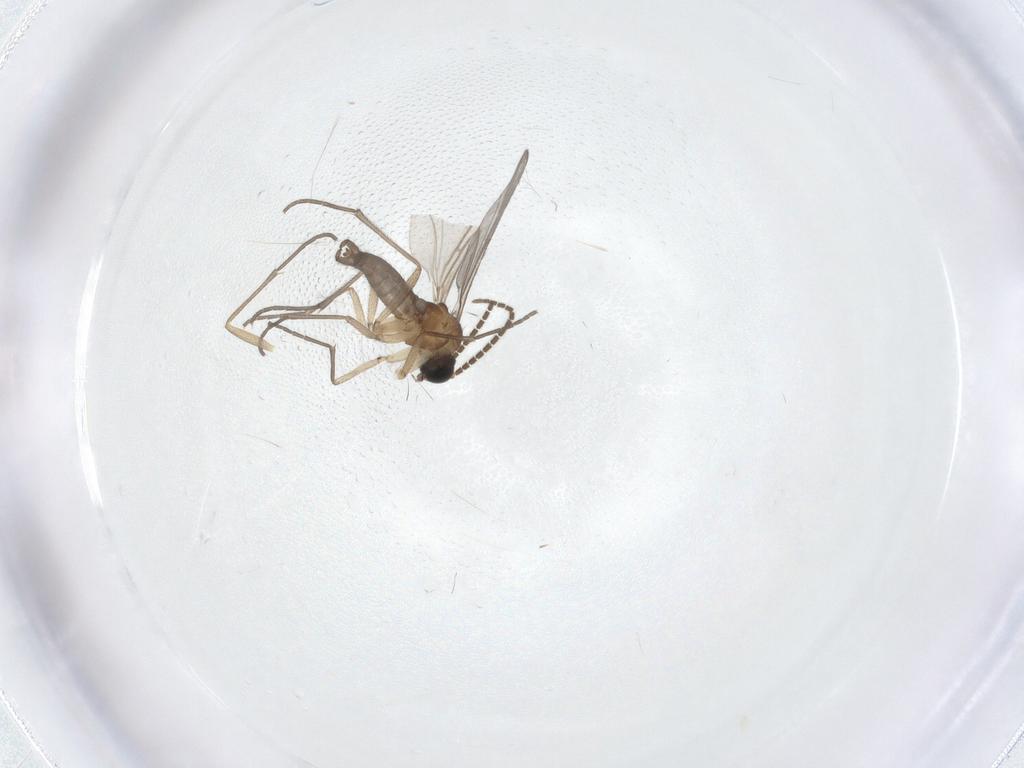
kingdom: Animalia
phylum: Arthropoda
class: Insecta
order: Diptera
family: Sciaridae
